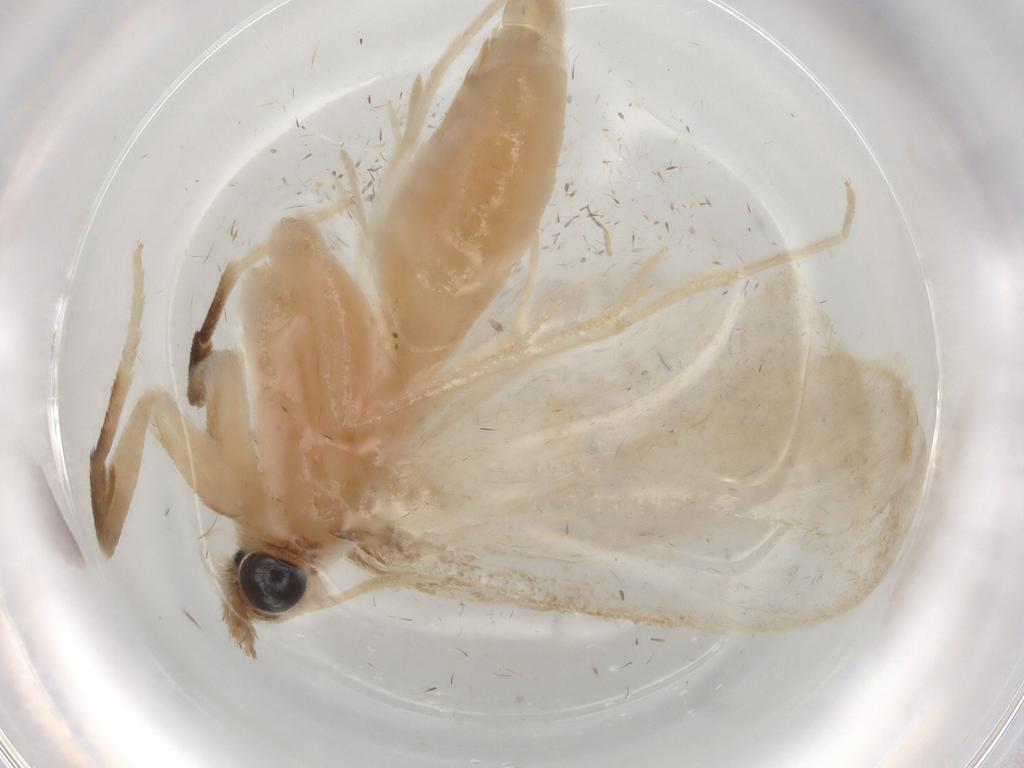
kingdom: Animalia
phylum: Arthropoda
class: Insecta
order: Lepidoptera
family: Crambidae
